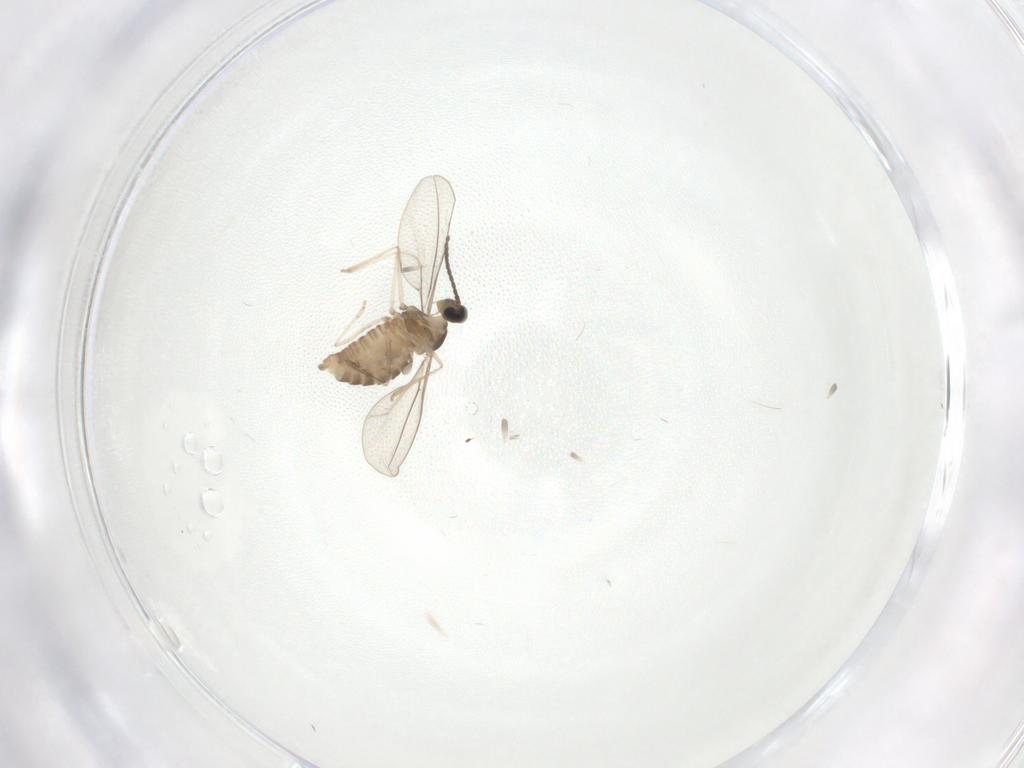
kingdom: Animalia
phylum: Arthropoda
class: Insecta
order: Diptera
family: Cecidomyiidae
